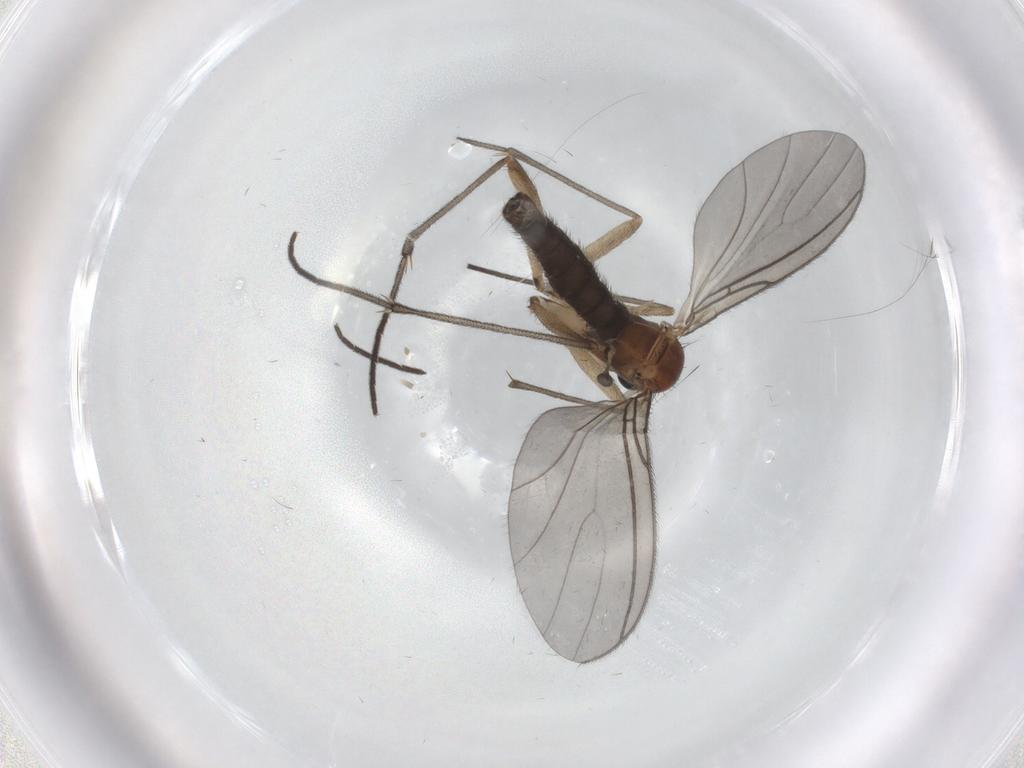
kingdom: Animalia
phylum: Arthropoda
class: Insecta
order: Diptera
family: Sciaridae
